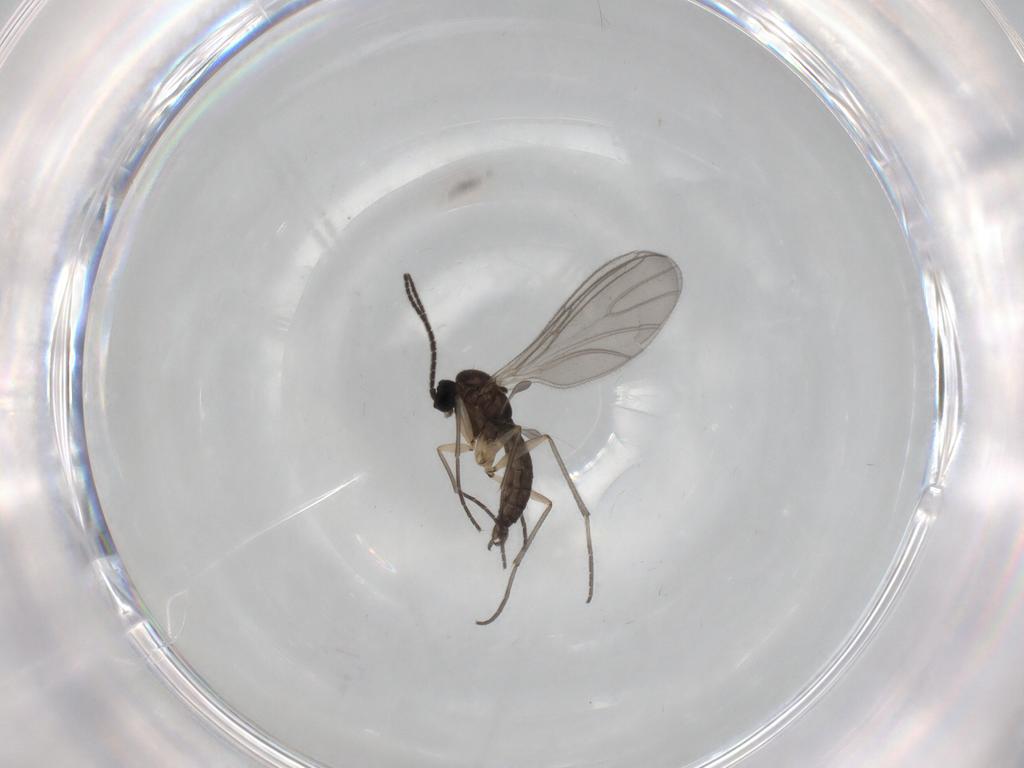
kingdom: Animalia
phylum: Arthropoda
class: Insecta
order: Diptera
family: Sciaridae
